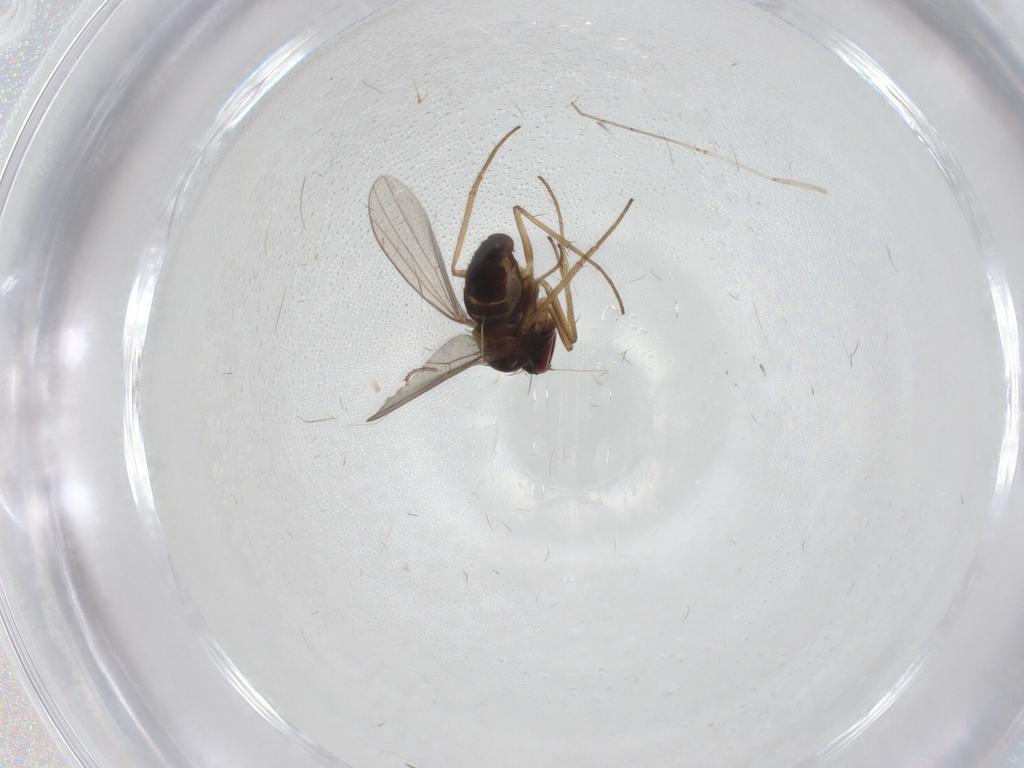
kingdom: Animalia
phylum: Arthropoda
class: Insecta
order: Diptera
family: Dolichopodidae
